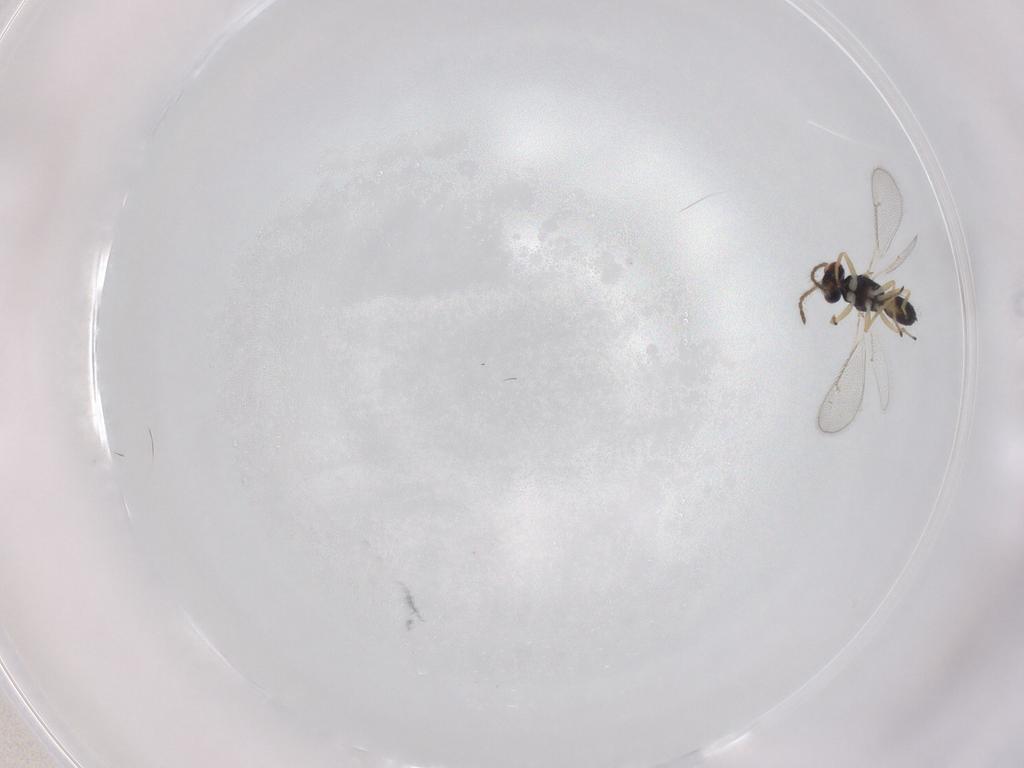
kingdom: Animalia
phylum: Arthropoda
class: Insecta
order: Hymenoptera
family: Eulophidae
